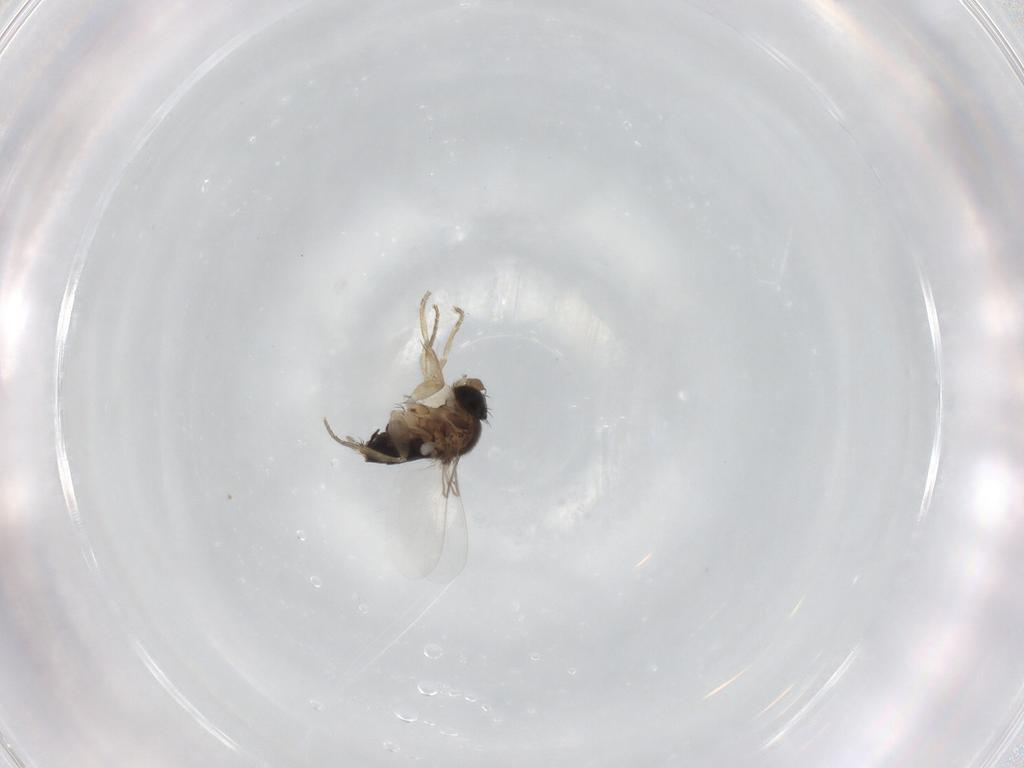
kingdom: Animalia
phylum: Arthropoda
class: Insecta
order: Diptera
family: Phoridae
